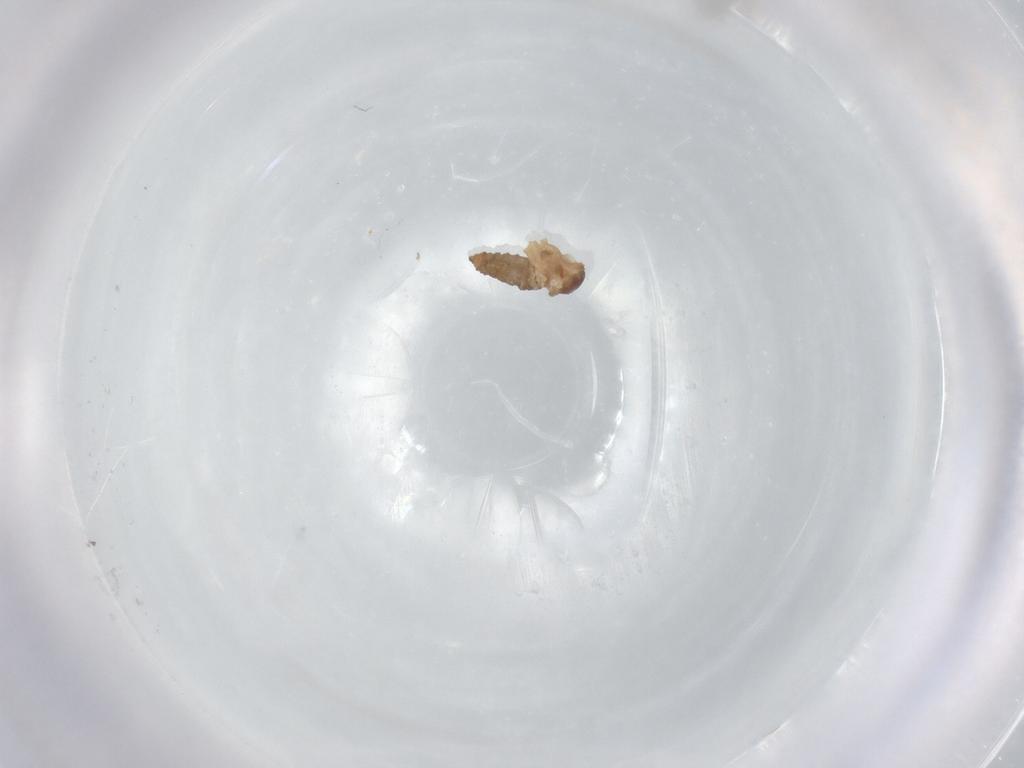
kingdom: Animalia
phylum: Arthropoda
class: Insecta
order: Diptera
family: Cecidomyiidae
